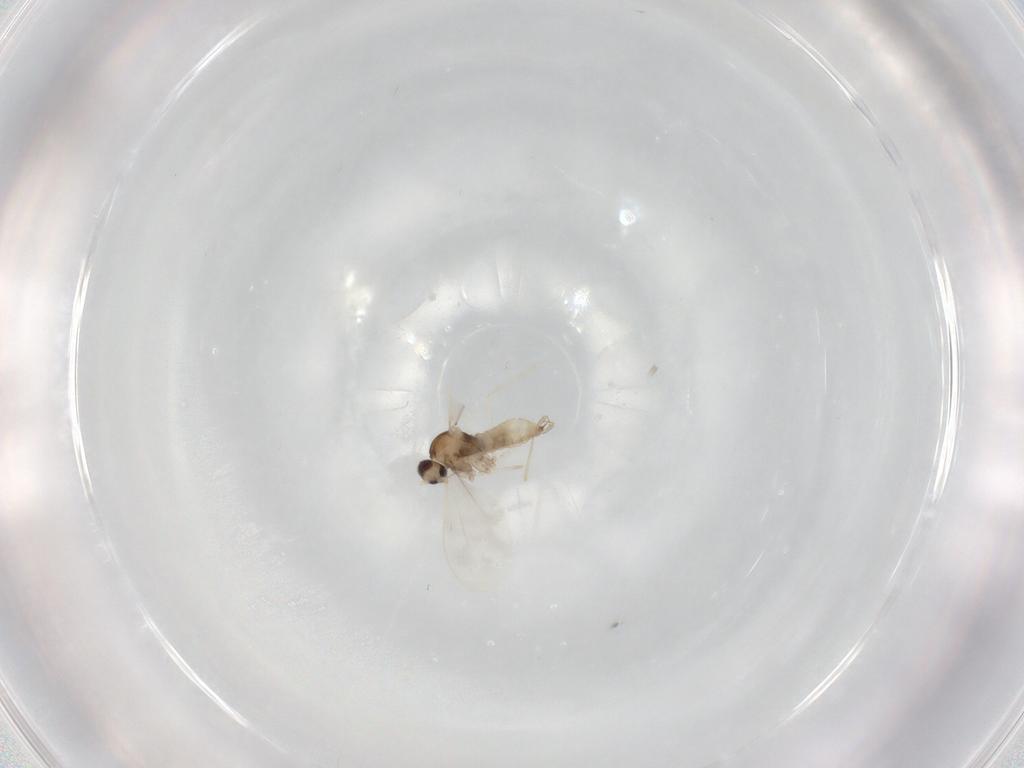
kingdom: Animalia
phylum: Arthropoda
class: Insecta
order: Diptera
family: Cecidomyiidae
